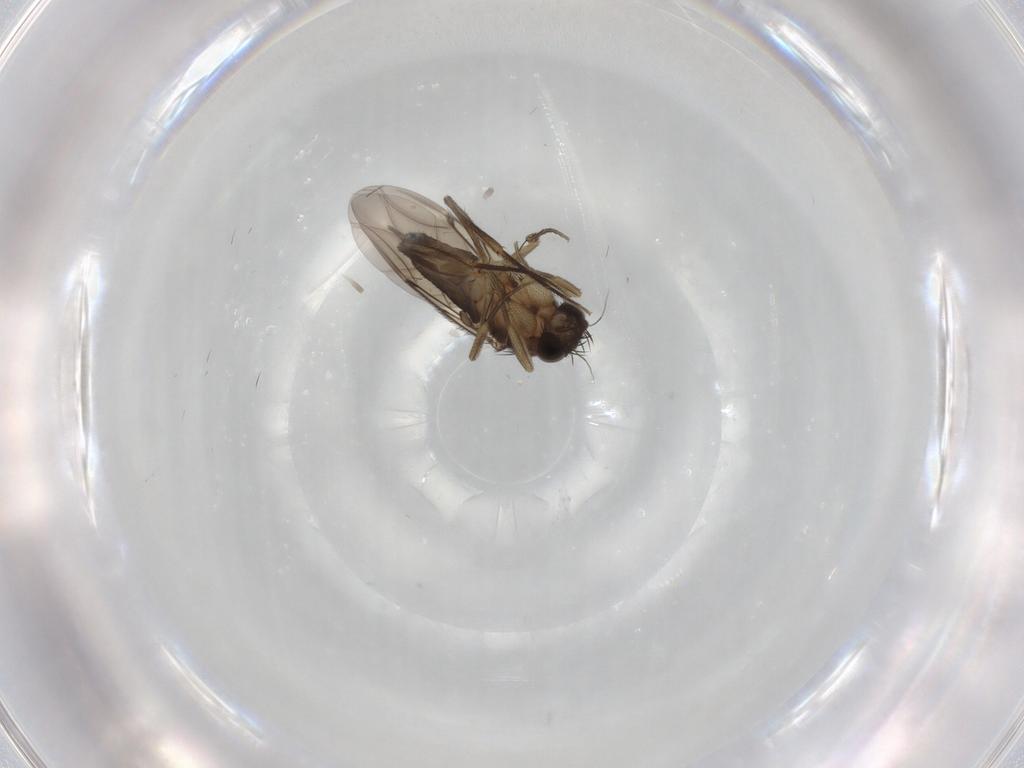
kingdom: Animalia
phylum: Arthropoda
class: Insecta
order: Diptera
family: Phoridae
